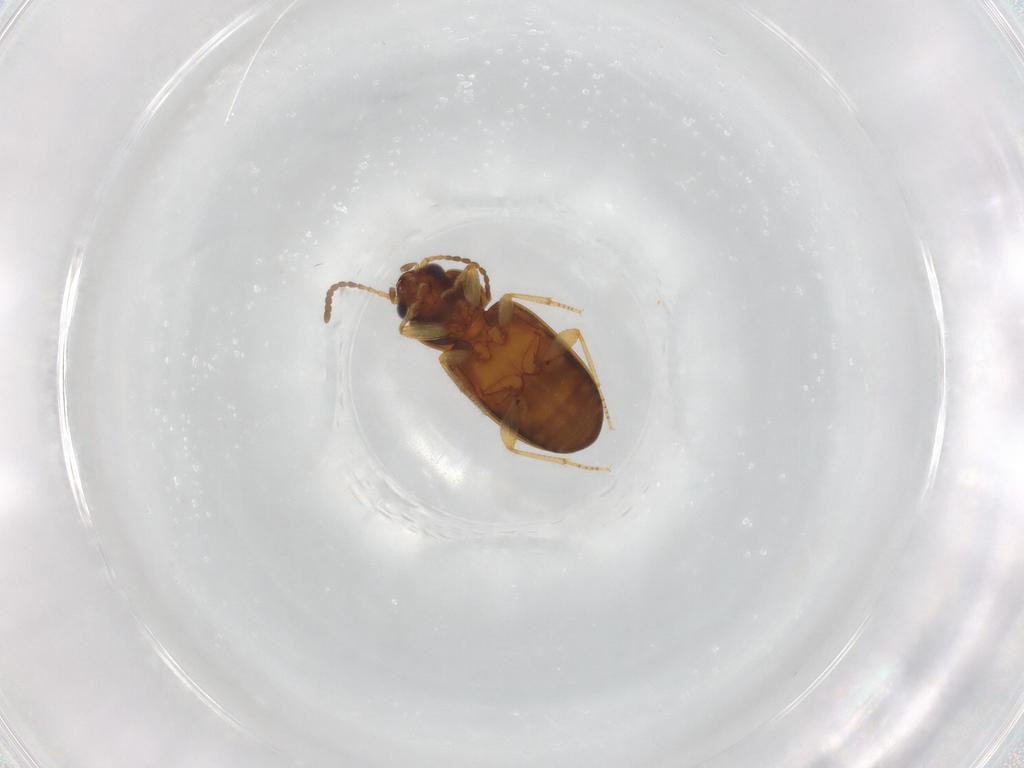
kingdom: Animalia
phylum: Arthropoda
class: Insecta
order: Coleoptera
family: Carabidae
